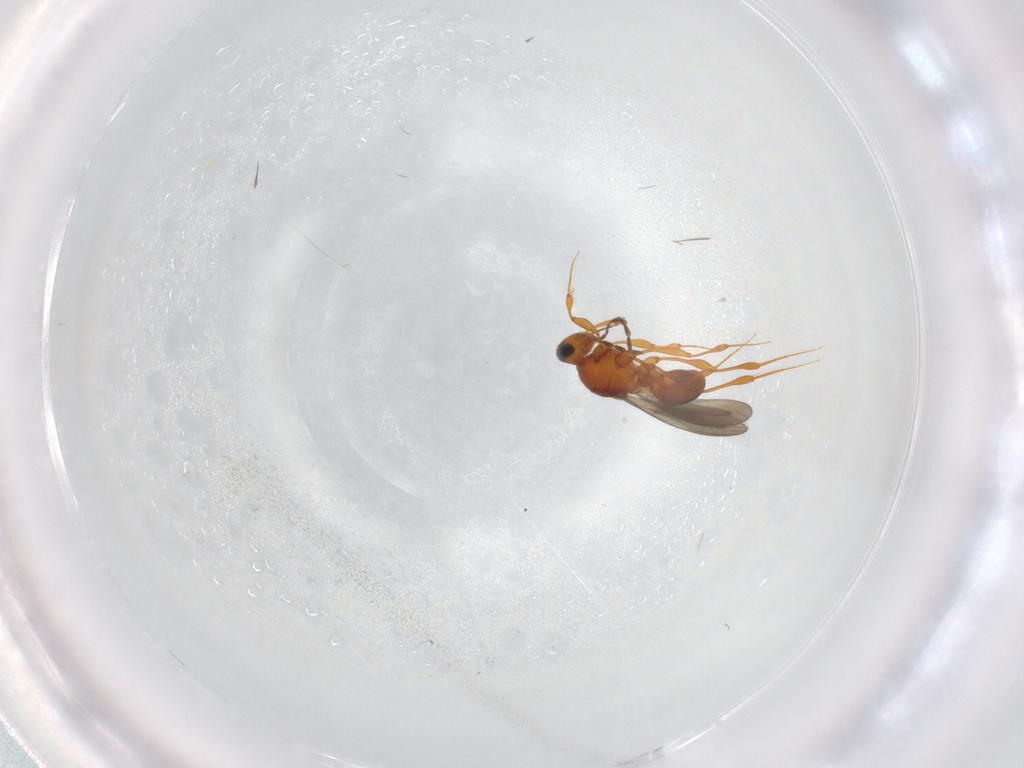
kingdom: Animalia
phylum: Arthropoda
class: Insecta
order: Hymenoptera
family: Platygastridae
